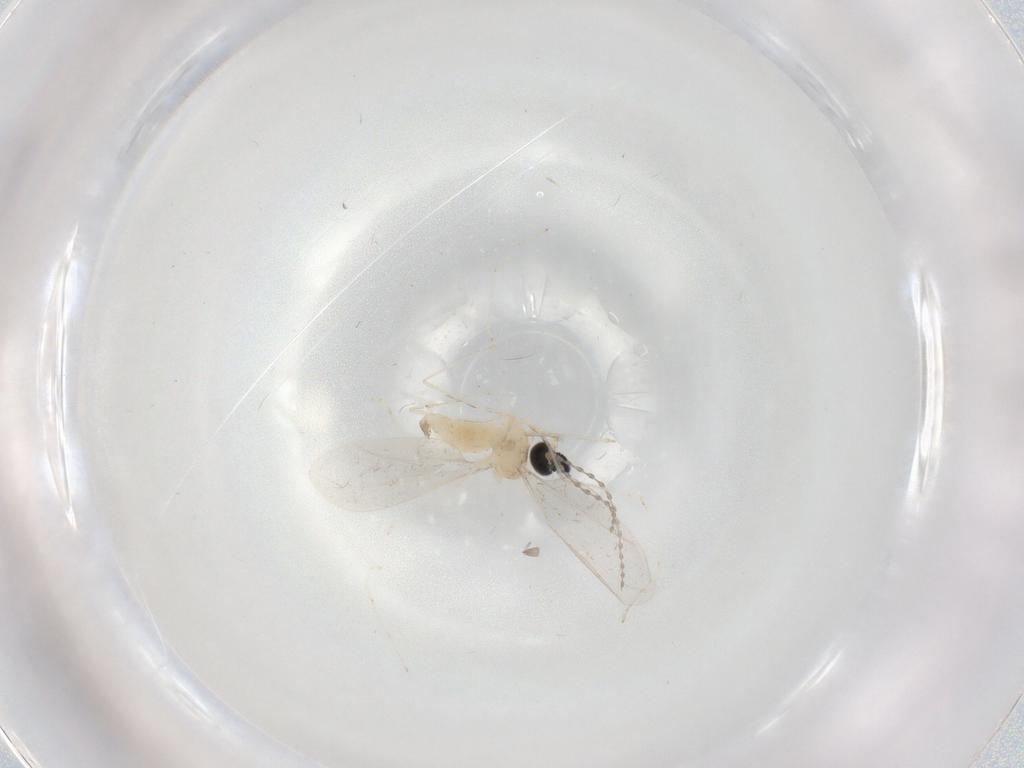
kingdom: Animalia
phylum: Arthropoda
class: Insecta
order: Diptera
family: Cecidomyiidae
